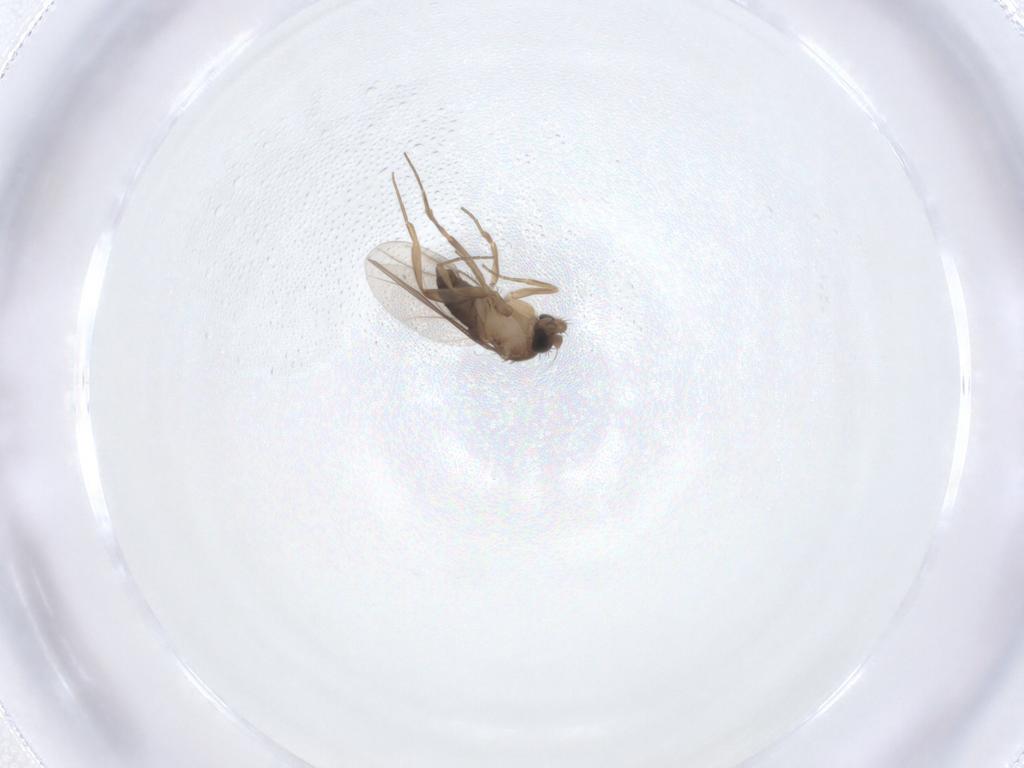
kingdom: Animalia
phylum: Arthropoda
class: Insecta
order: Diptera
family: Phoridae
